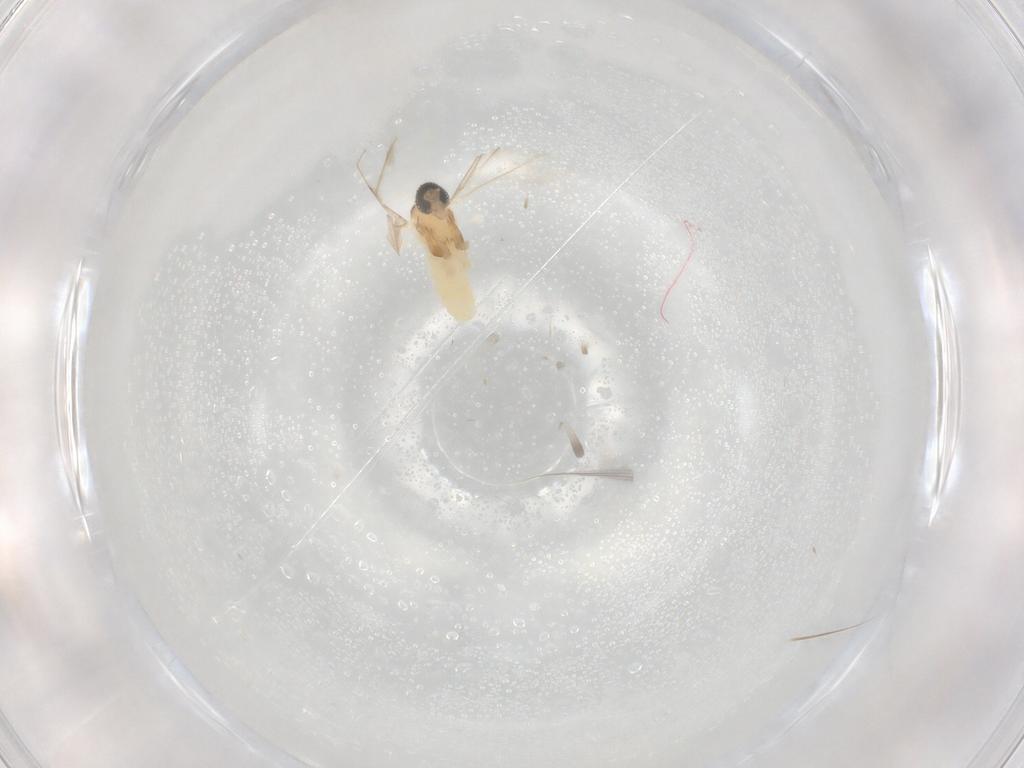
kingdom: Animalia
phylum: Arthropoda
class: Insecta
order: Diptera
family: Cecidomyiidae
